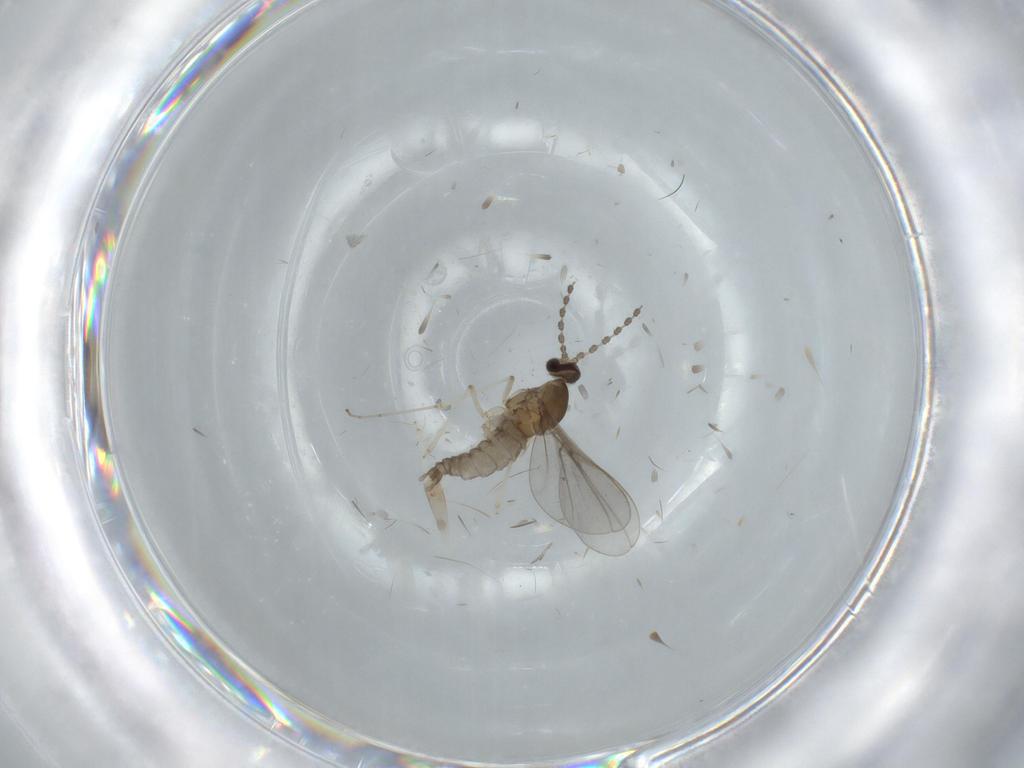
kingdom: Animalia
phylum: Arthropoda
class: Insecta
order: Diptera
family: Cecidomyiidae
